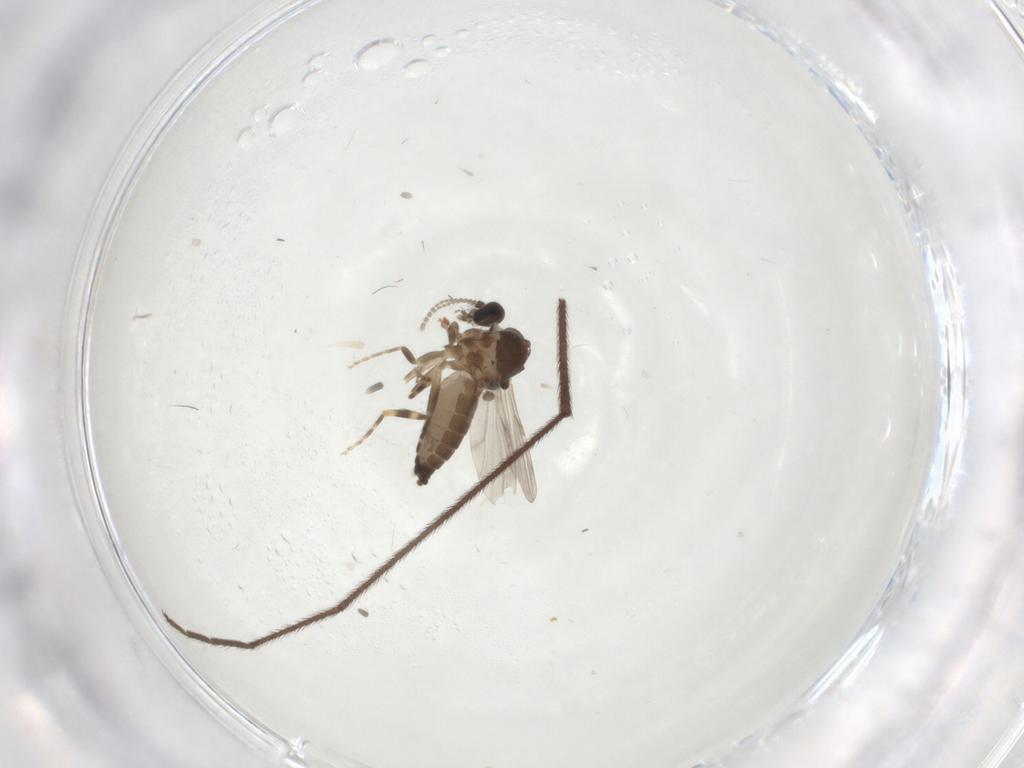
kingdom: Animalia
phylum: Arthropoda
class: Insecta
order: Diptera
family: Ceratopogonidae
